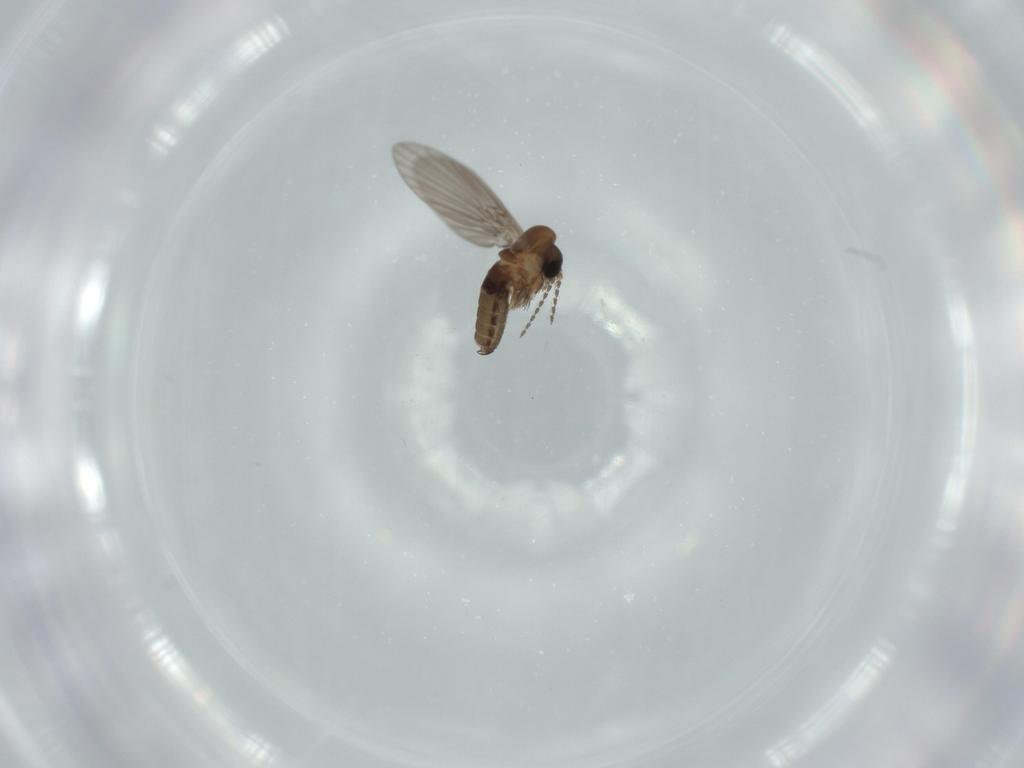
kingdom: Animalia
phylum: Arthropoda
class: Insecta
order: Diptera
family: Psychodidae
